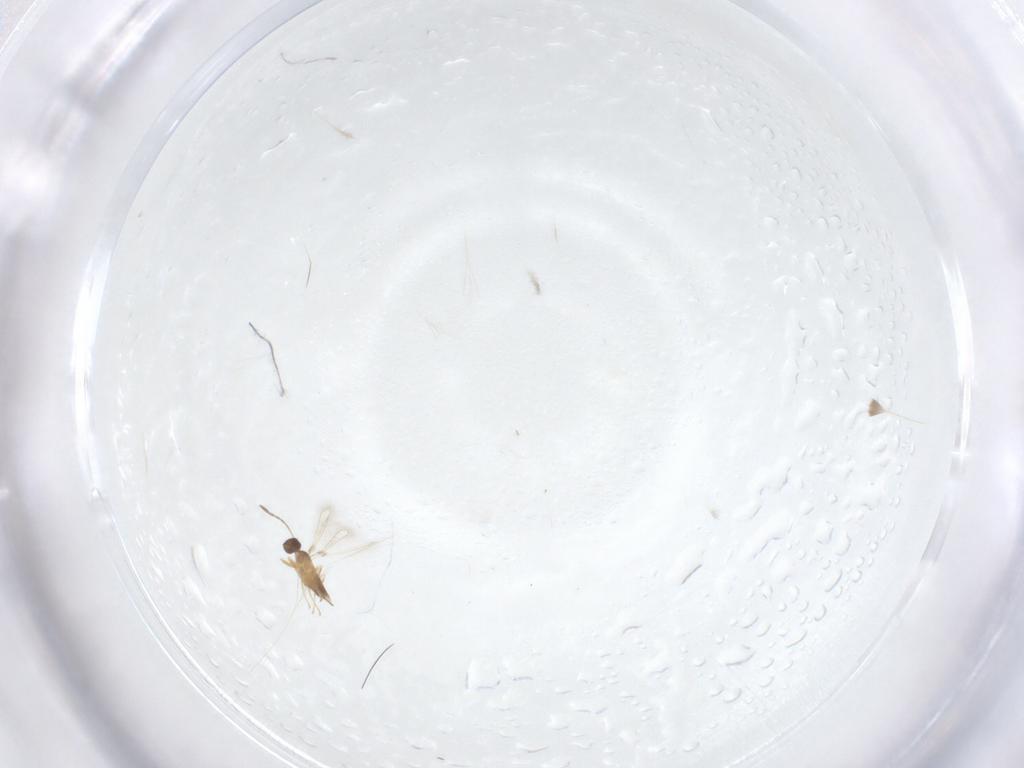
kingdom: Animalia
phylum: Arthropoda
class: Insecta
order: Hymenoptera
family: Mymaridae
